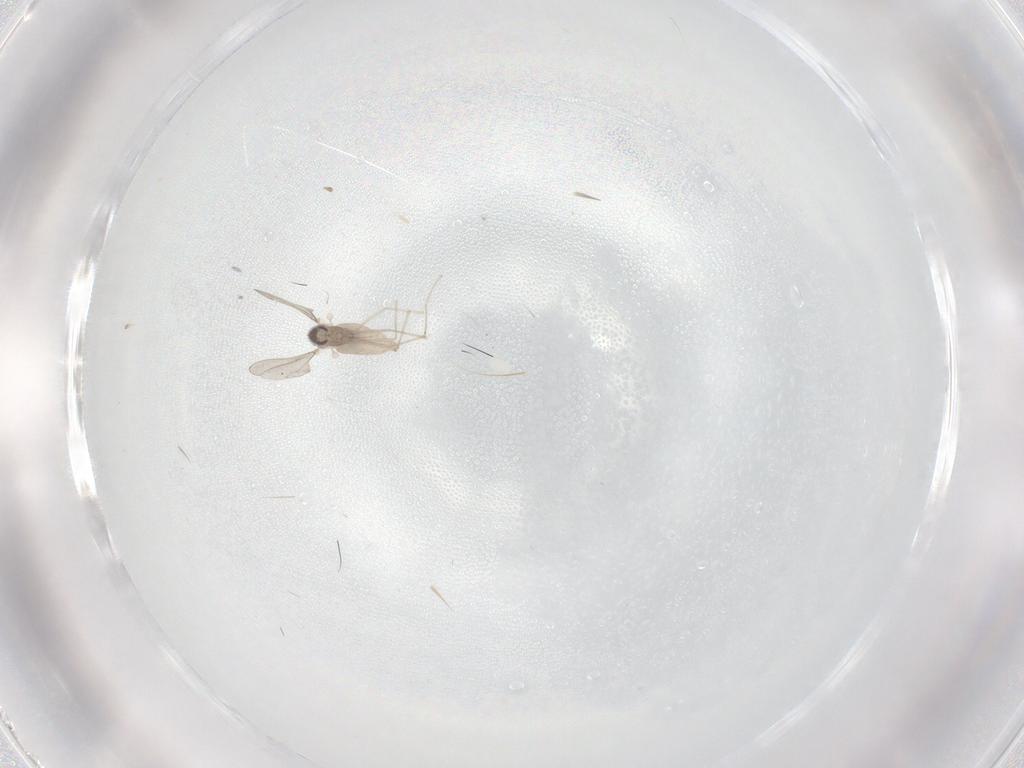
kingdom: Animalia
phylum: Arthropoda
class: Insecta
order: Diptera
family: Cecidomyiidae
